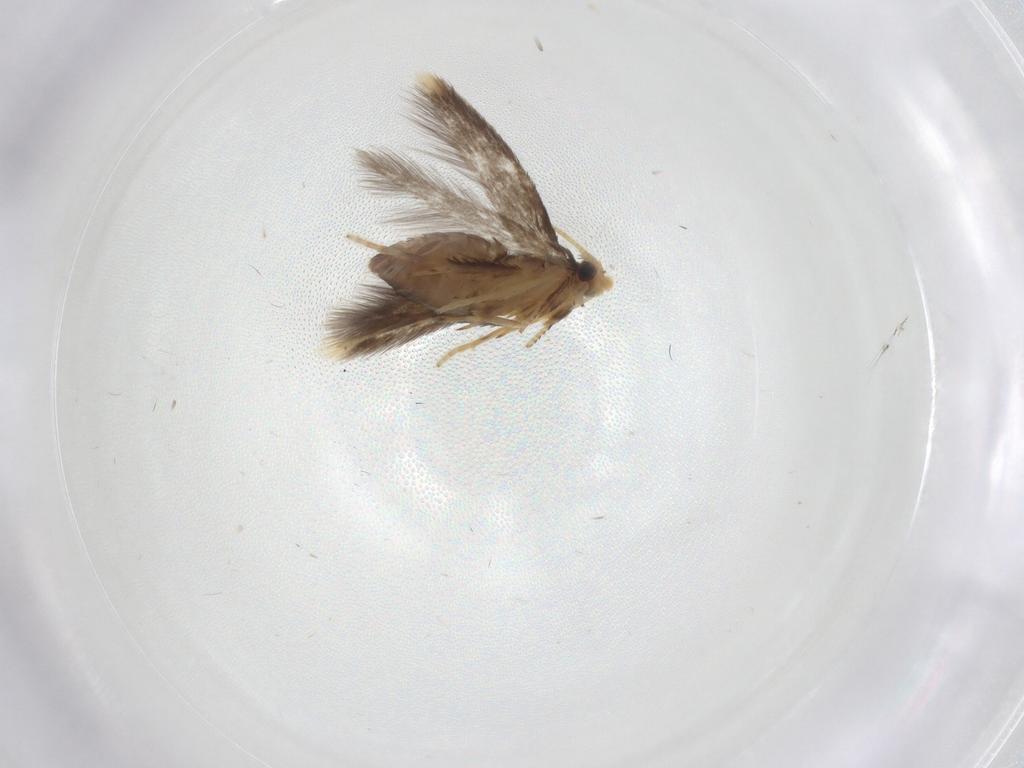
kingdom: Animalia
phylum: Arthropoda
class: Insecta
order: Lepidoptera
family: Nepticulidae
